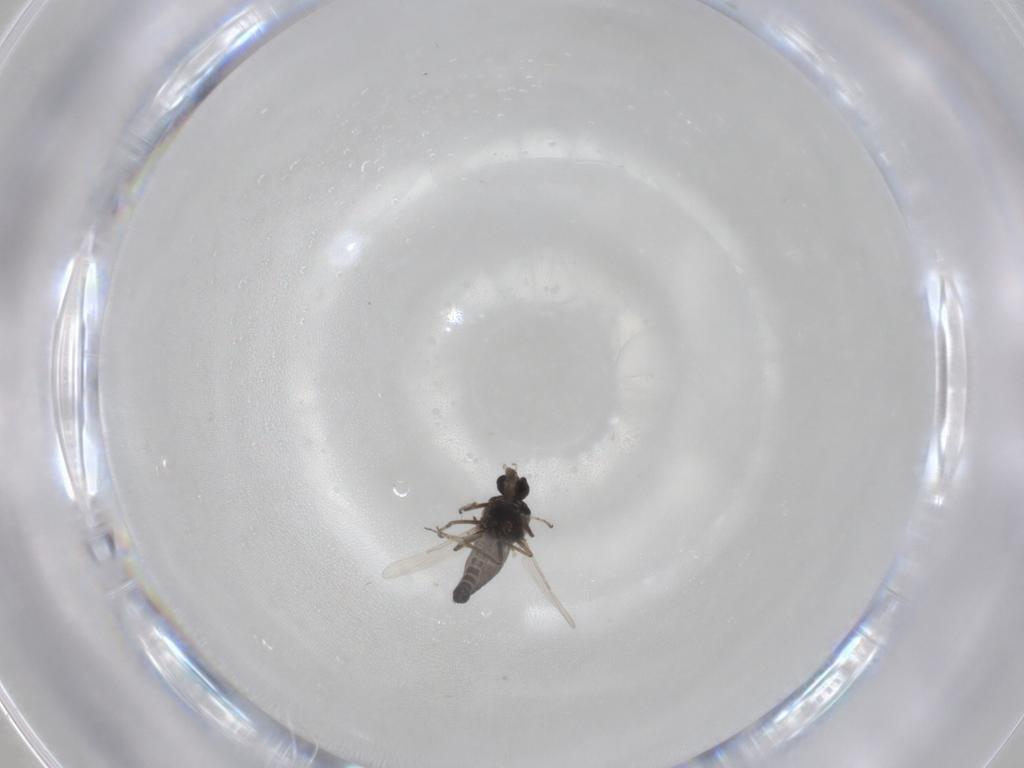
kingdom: Animalia
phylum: Arthropoda
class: Insecta
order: Diptera
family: Ceratopogonidae
